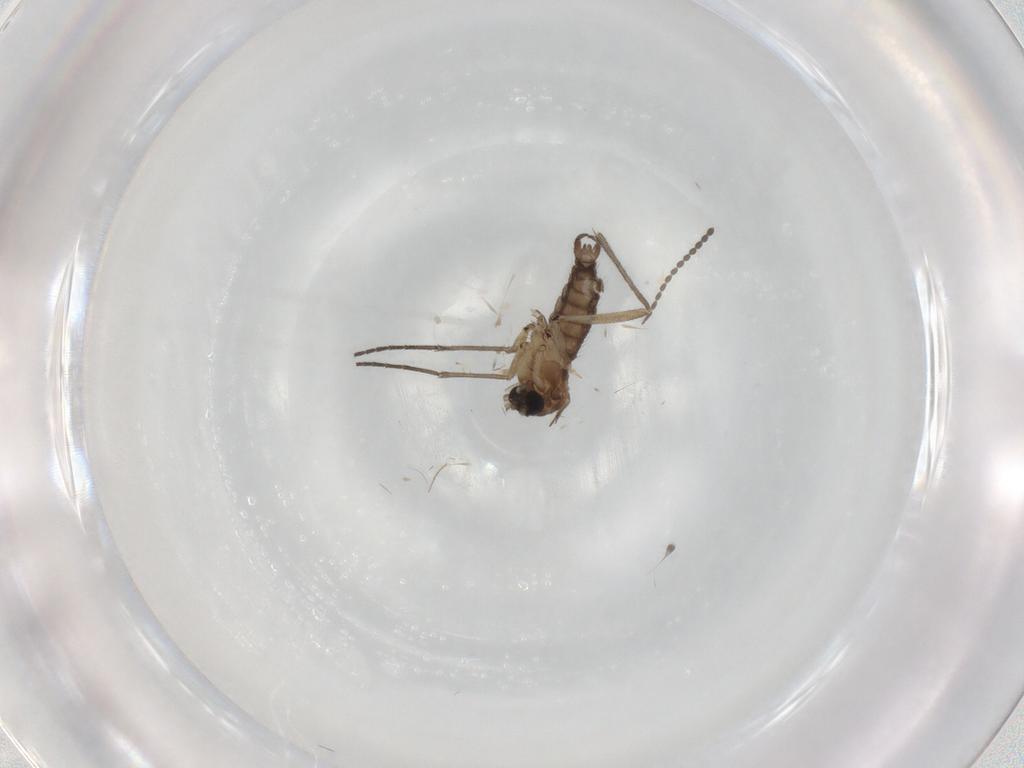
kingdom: Animalia
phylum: Arthropoda
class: Insecta
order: Diptera
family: Sciaridae
